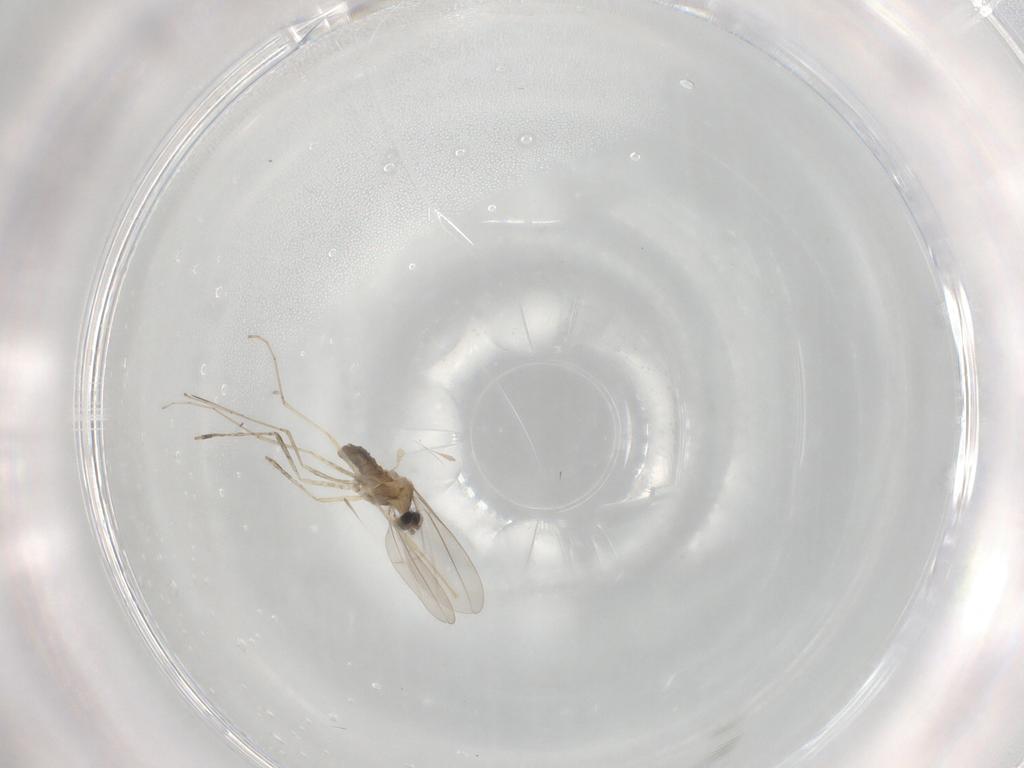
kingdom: Animalia
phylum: Arthropoda
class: Insecta
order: Diptera
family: Milichiidae
